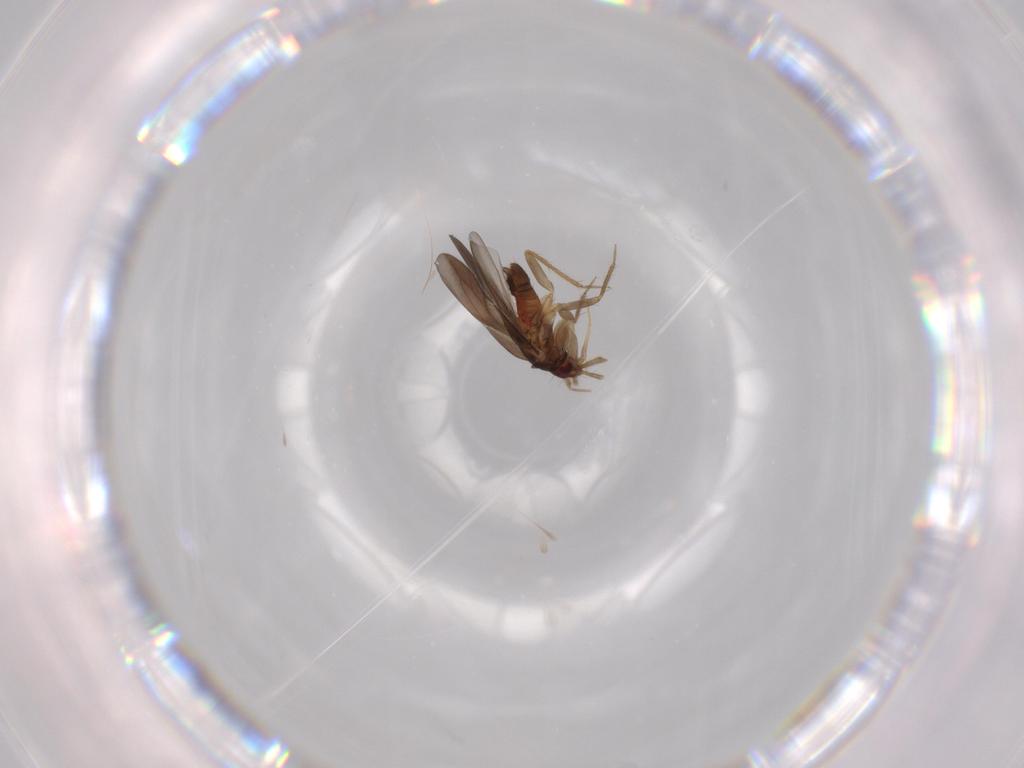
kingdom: Animalia
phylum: Arthropoda
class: Insecta
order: Hemiptera
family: Ceratocombidae
